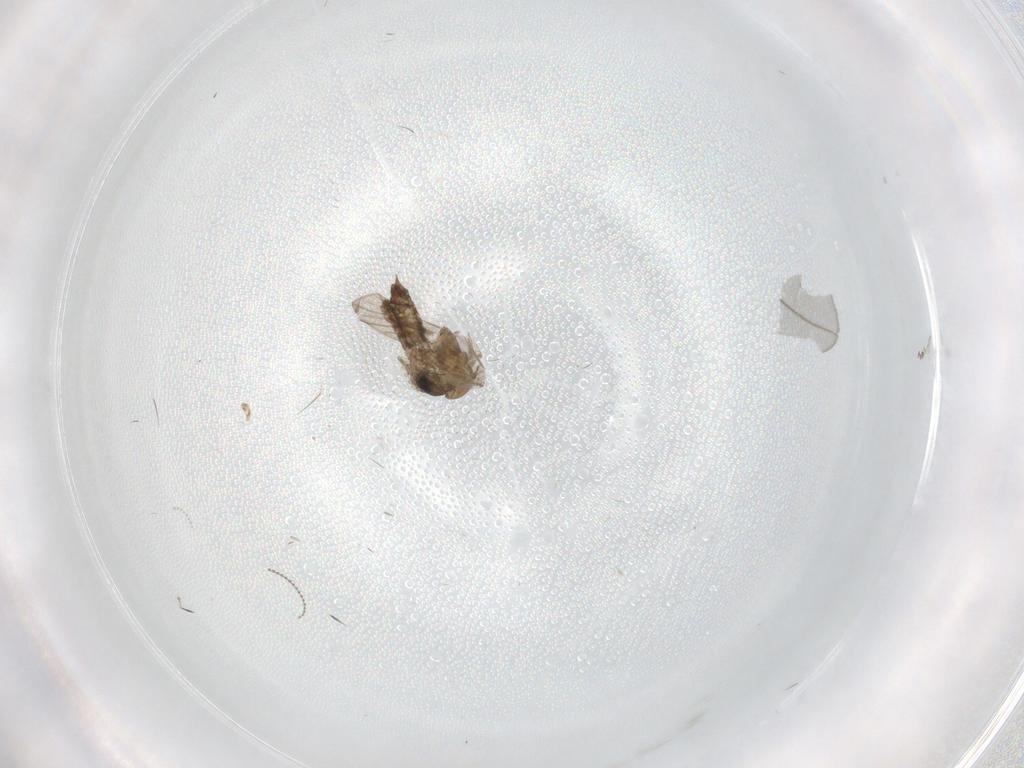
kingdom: Animalia
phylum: Arthropoda
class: Insecta
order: Diptera
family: Psychodidae
